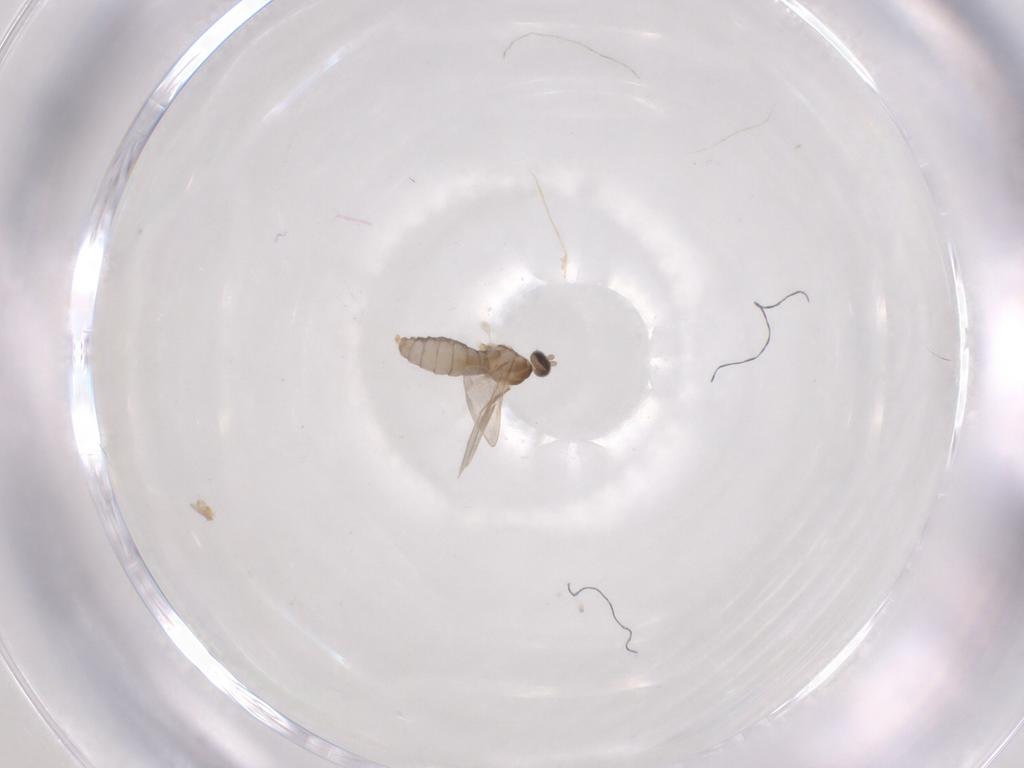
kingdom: Animalia
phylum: Arthropoda
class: Insecta
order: Diptera
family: Cecidomyiidae
